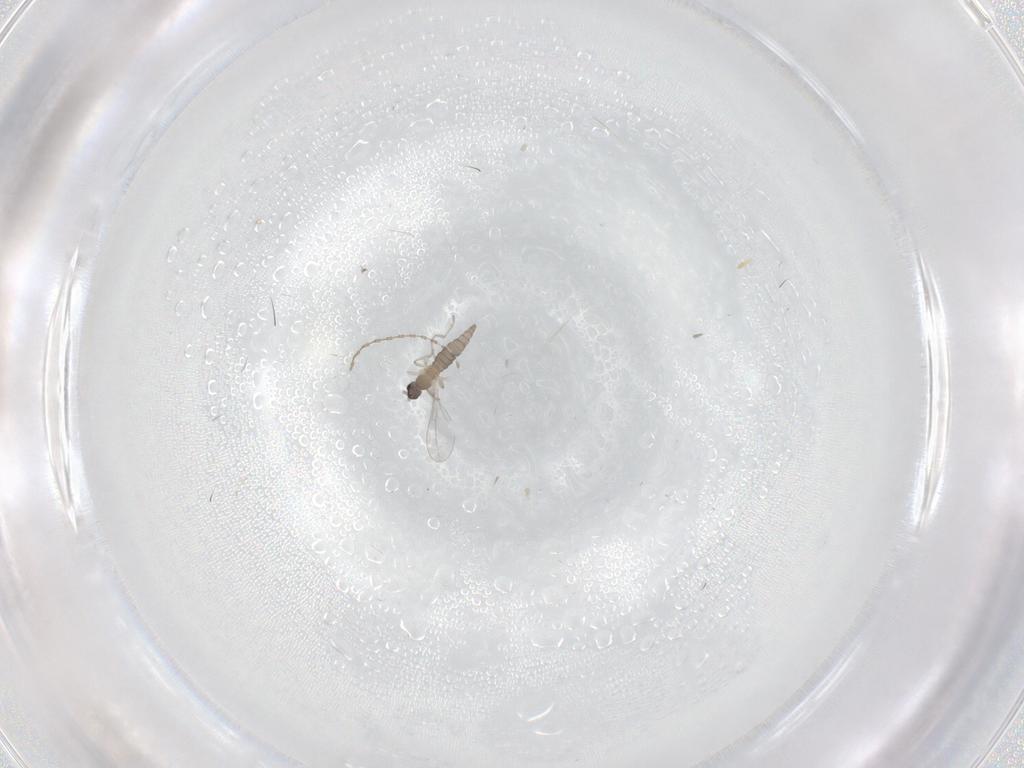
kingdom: Animalia
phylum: Arthropoda
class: Insecta
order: Diptera
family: Cecidomyiidae
